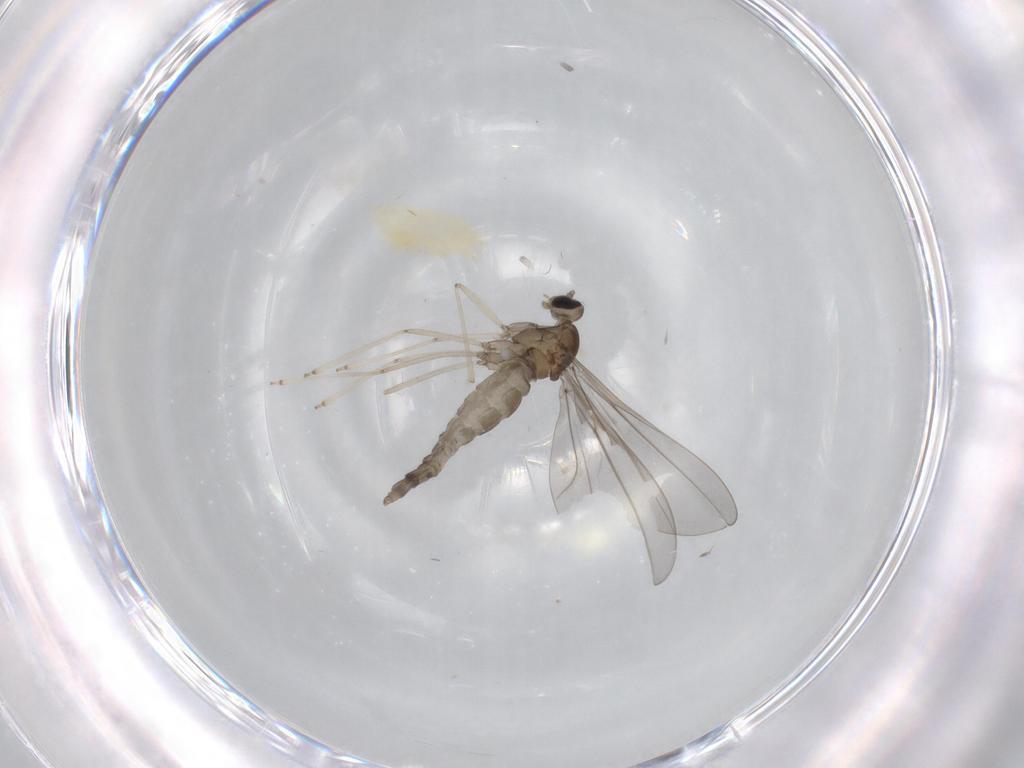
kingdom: Animalia
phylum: Arthropoda
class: Insecta
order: Diptera
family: Cecidomyiidae
